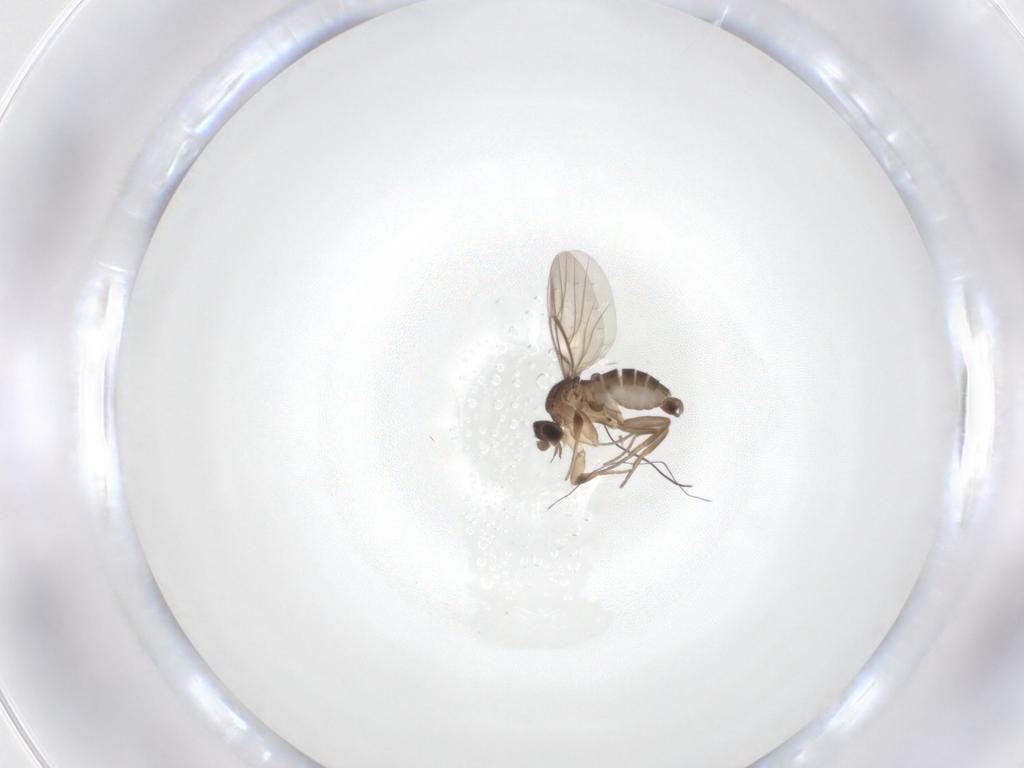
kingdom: Animalia
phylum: Arthropoda
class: Insecta
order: Diptera
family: Phoridae
